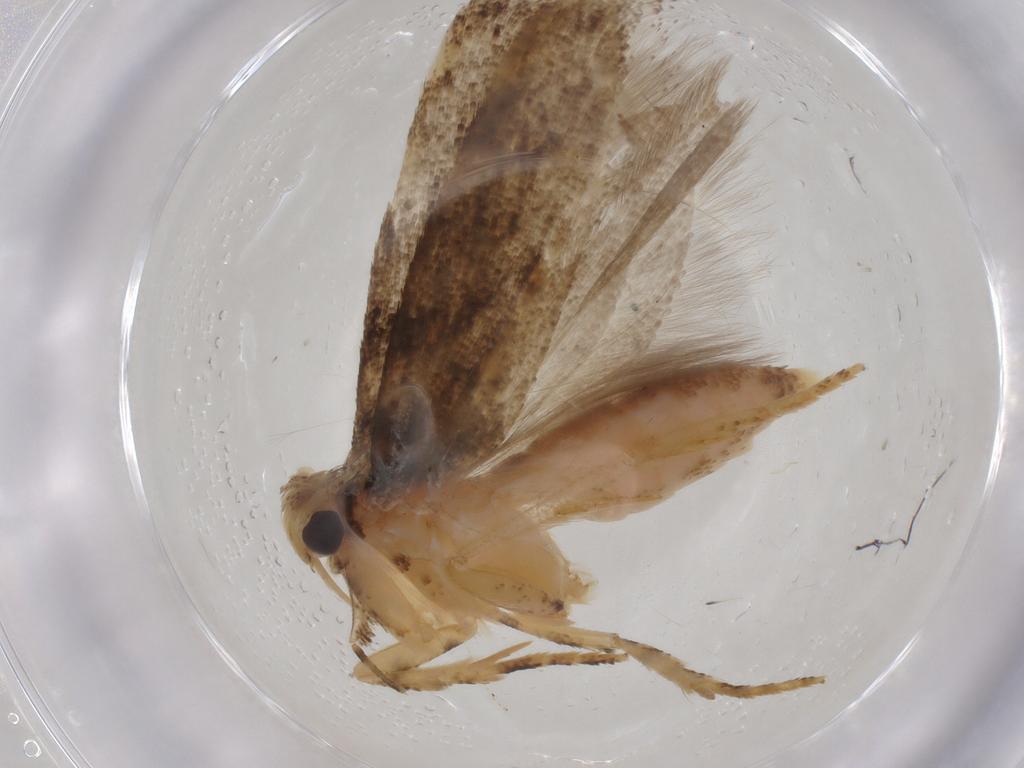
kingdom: Animalia
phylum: Arthropoda
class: Insecta
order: Lepidoptera
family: Gelechiidae
